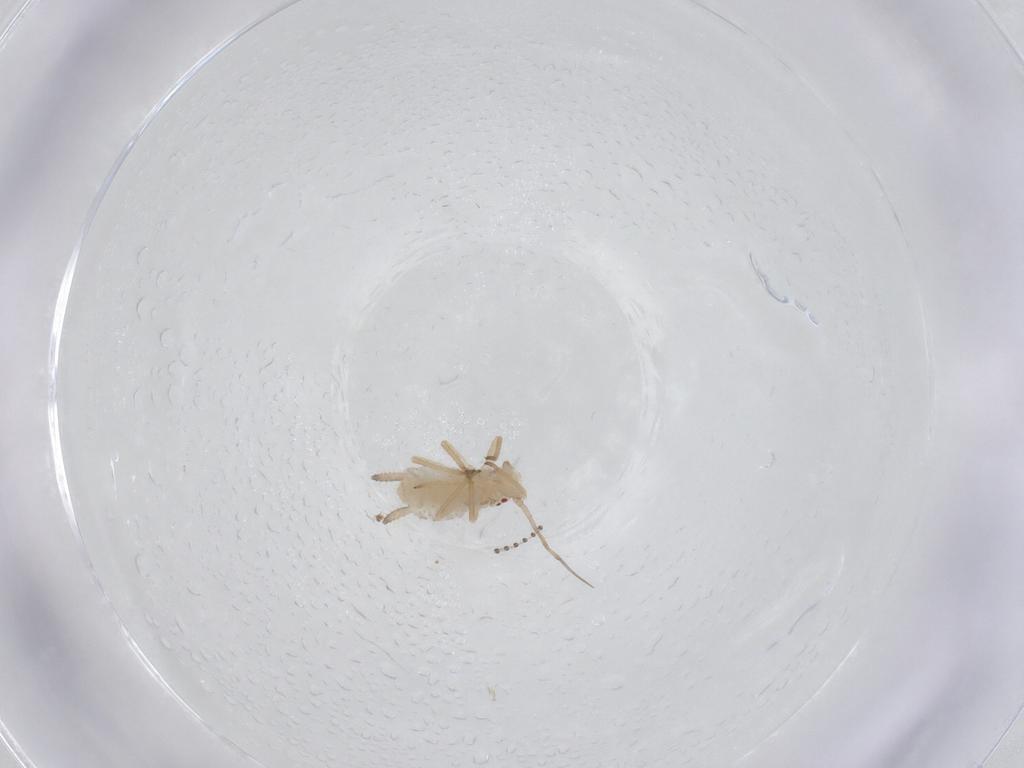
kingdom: Animalia
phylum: Arthropoda
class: Insecta
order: Hemiptera
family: Aphididae
